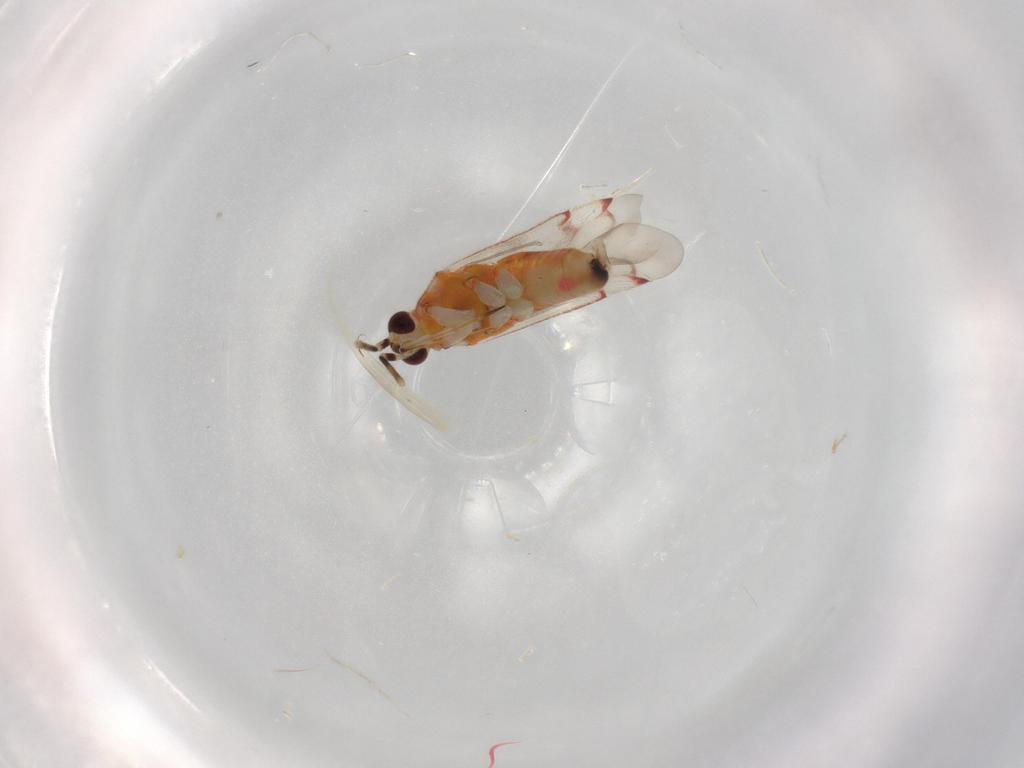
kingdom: Animalia
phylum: Arthropoda
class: Insecta
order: Hemiptera
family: Miridae
